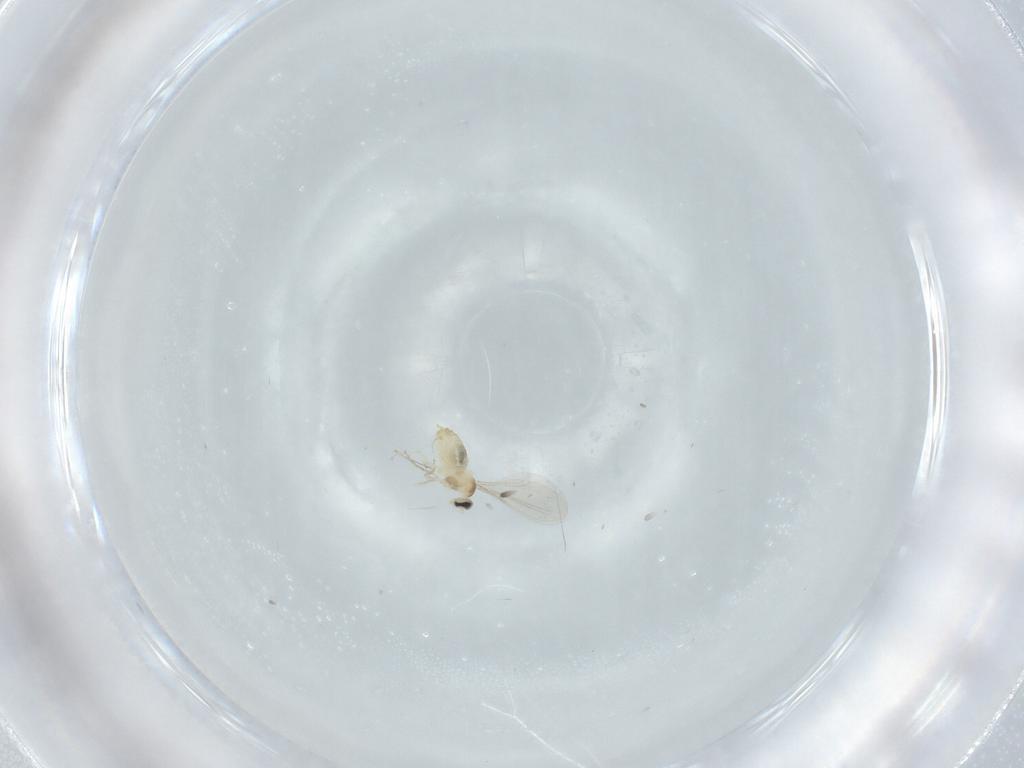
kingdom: Animalia
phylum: Arthropoda
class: Insecta
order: Diptera
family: Cecidomyiidae
